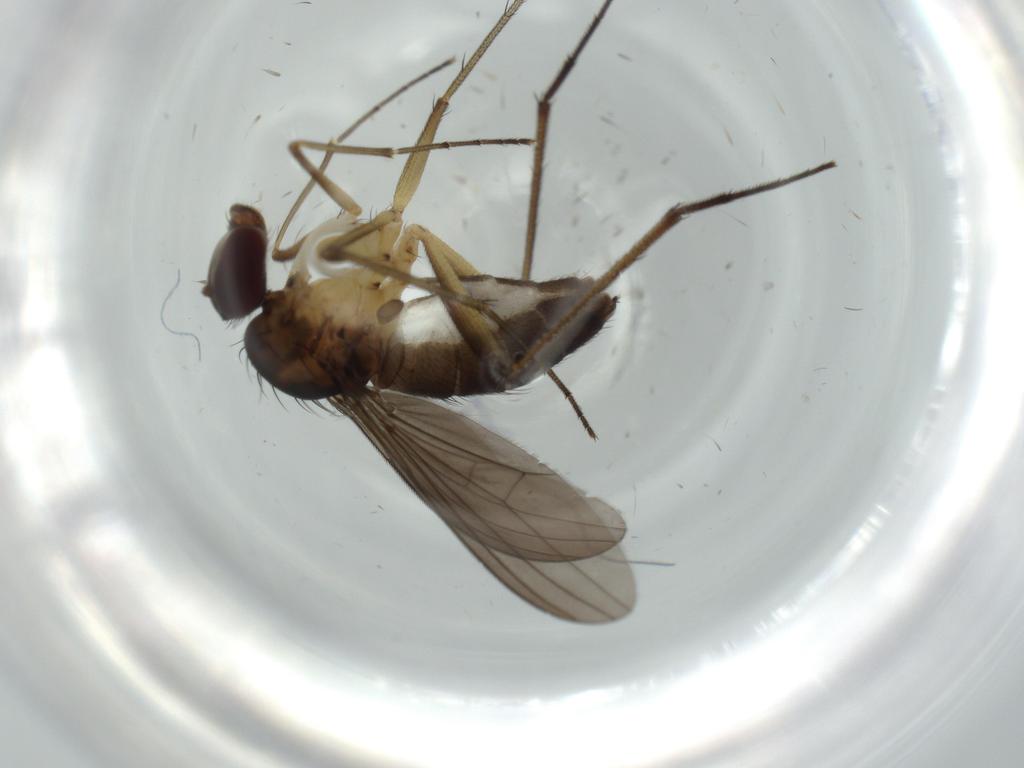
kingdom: Animalia
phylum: Arthropoda
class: Insecta
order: Diptera
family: Dolichopodidae
